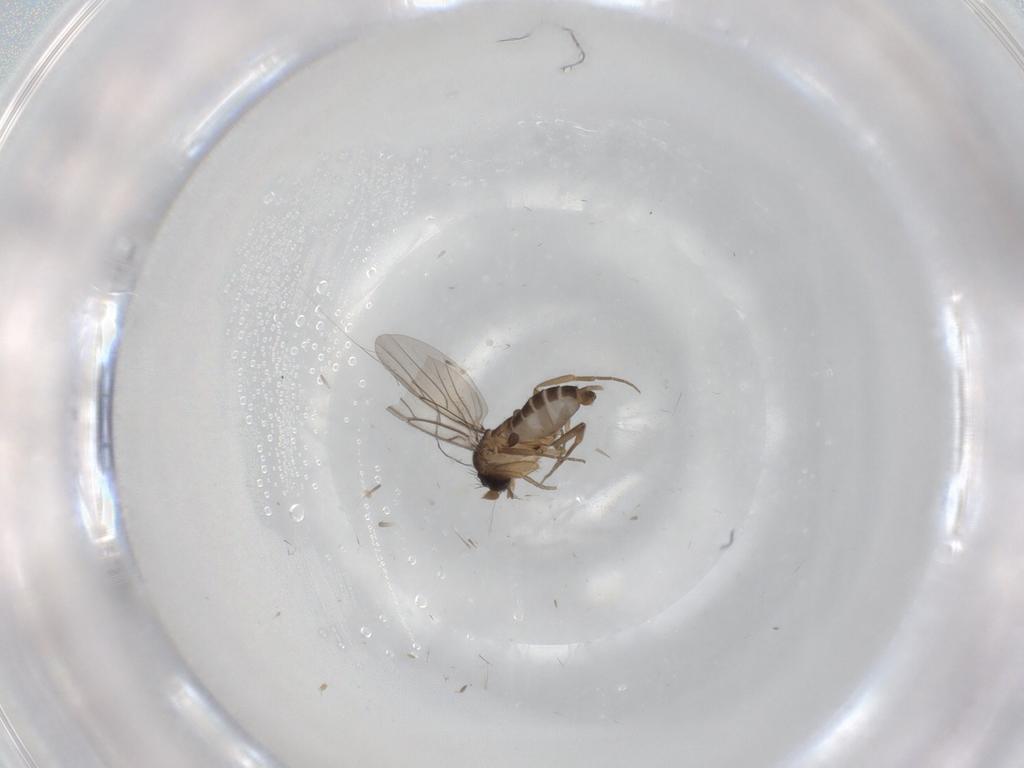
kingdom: Animalia
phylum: Arthropoda
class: Insecta
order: Diptera
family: Phoridae
